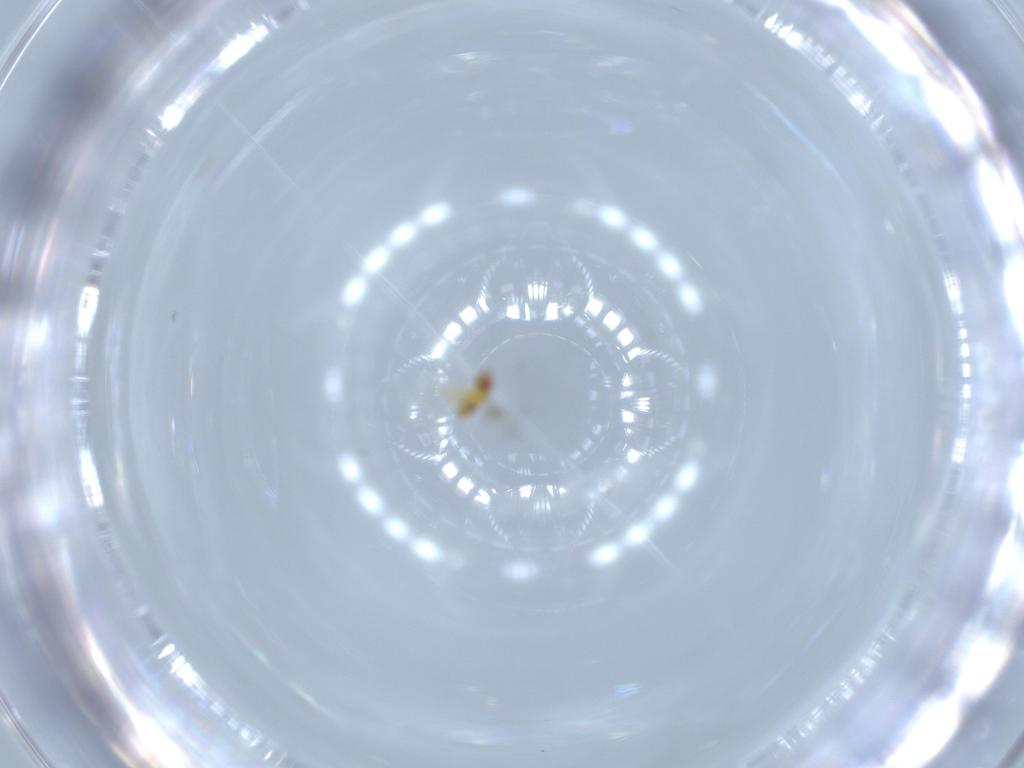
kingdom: Animalia
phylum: Arthropoda
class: Insecta
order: Hymenoptera
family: Trichogrammatidae
